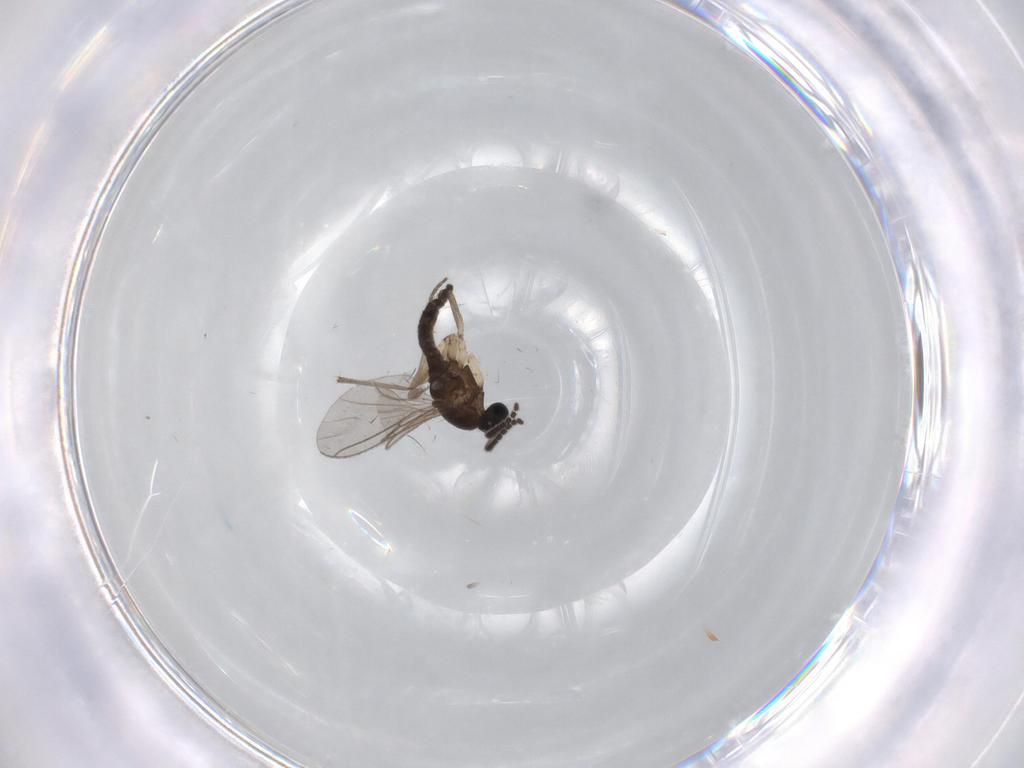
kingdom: Animalia
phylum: Arthropoda
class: Insecta
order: Diptera
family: Sciaridae
